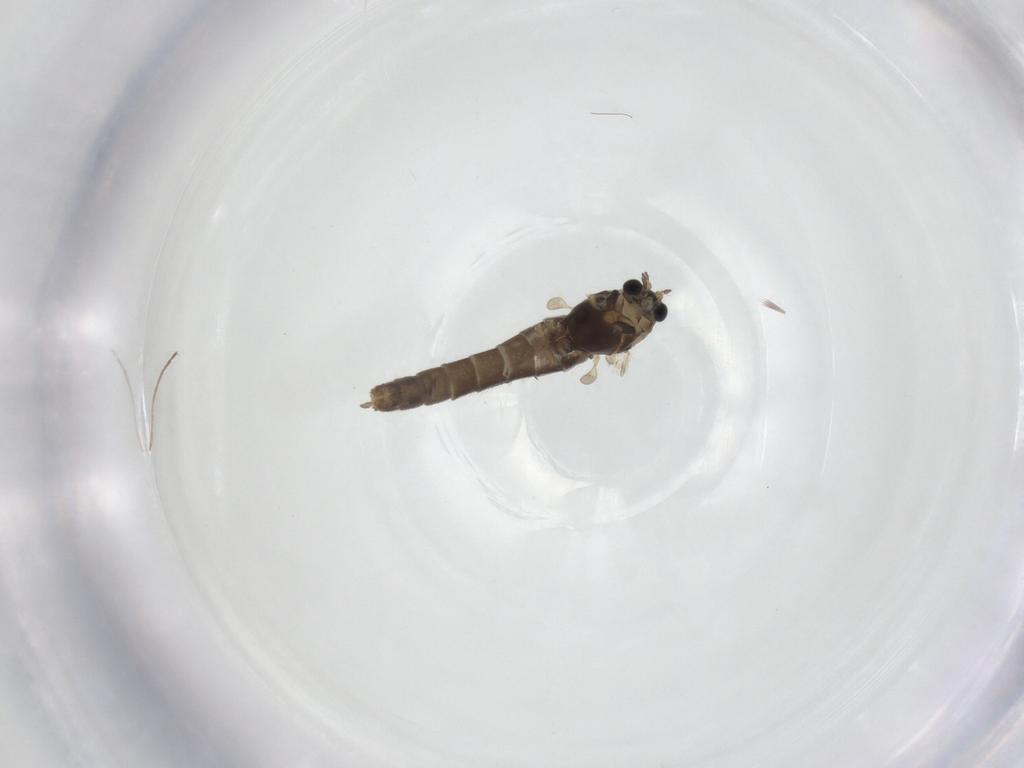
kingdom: Animalia
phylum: Arthropoda
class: Insecta
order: Diptera
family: Chironomidae
